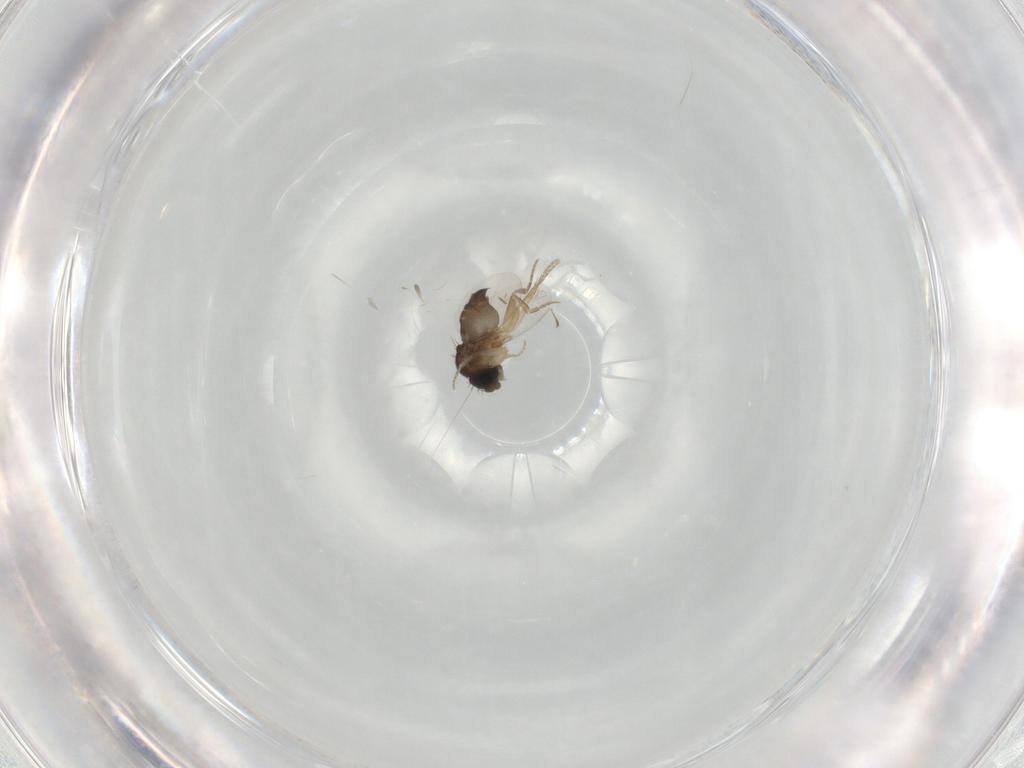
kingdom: Animalia
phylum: Arthropoda
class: Insecta
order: Diptera
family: Phoridae
